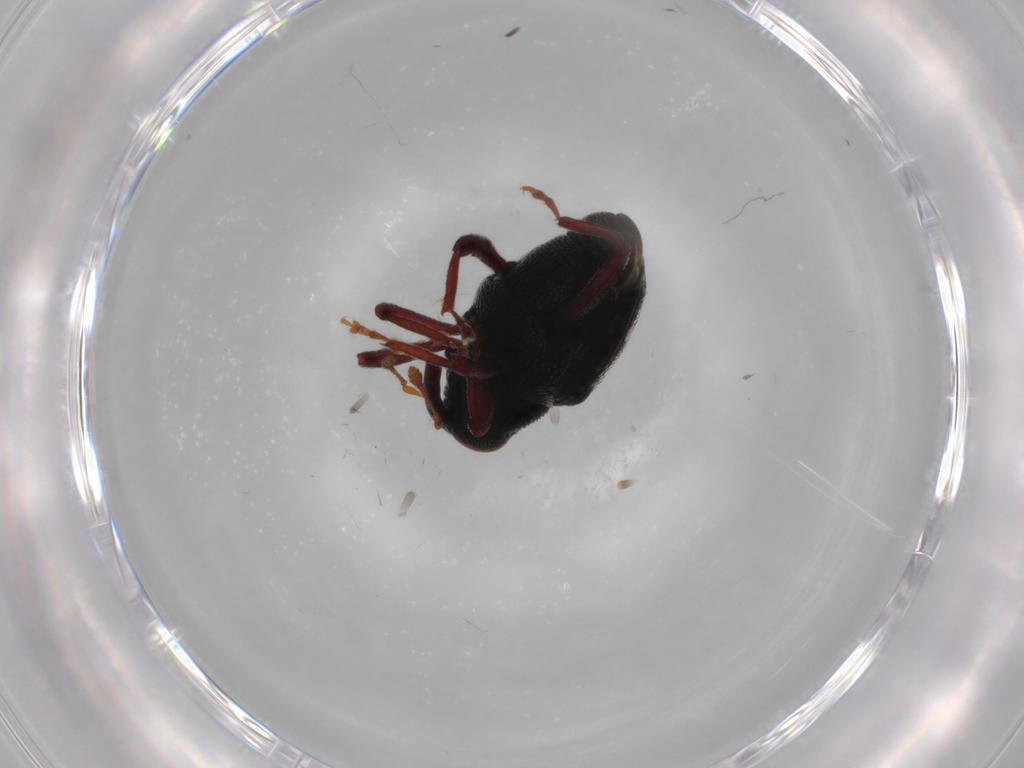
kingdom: Animalia
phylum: Arthropoda
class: Insecta
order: Coleoptera
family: Curculionidae
